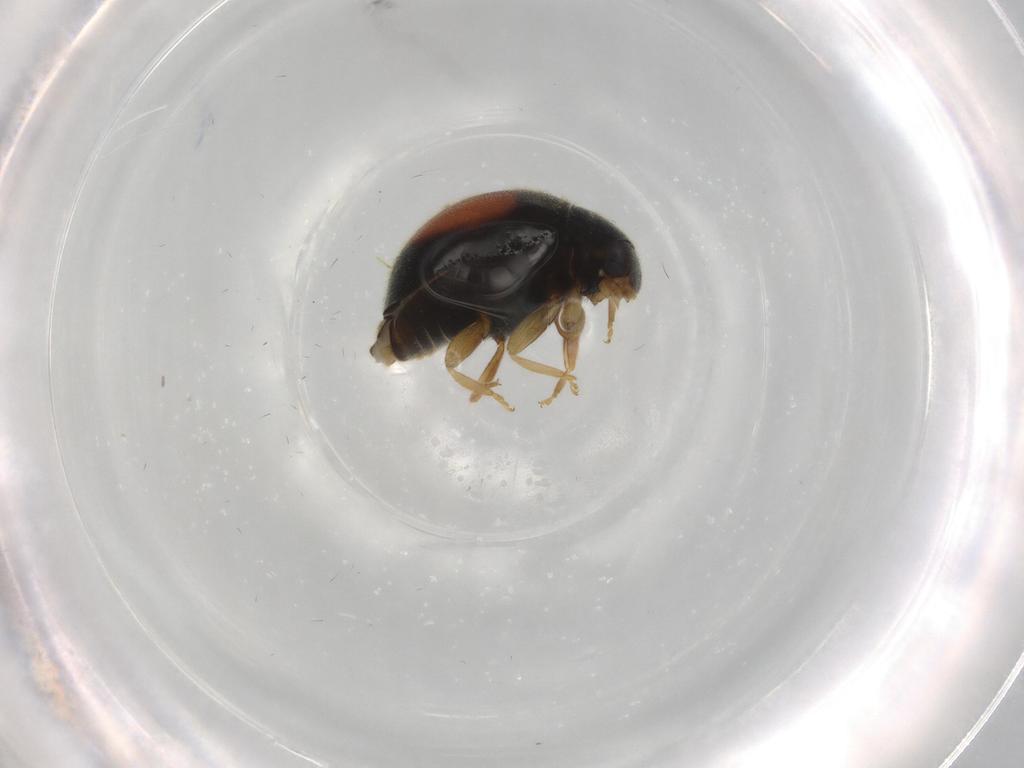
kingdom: Animalia
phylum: Arthropoda
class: Insecta
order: Coleoptera
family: Coccinellidae
